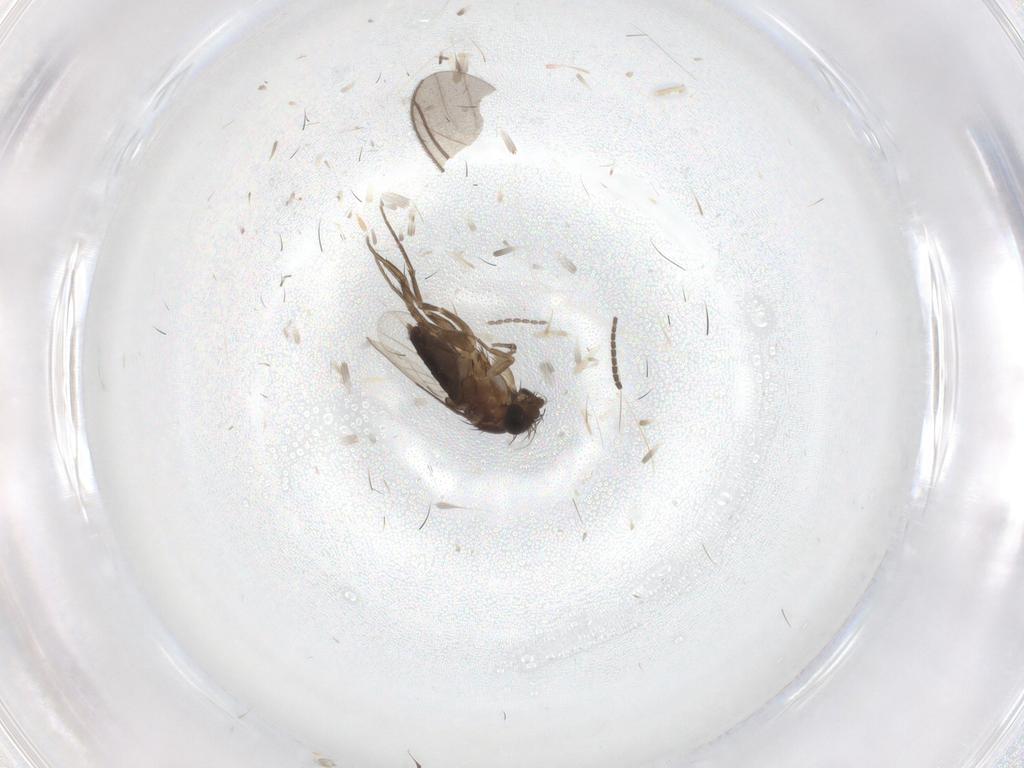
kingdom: Animalia
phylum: Arthropoda
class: Insecta
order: Diptera
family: Cecidomyiidae
